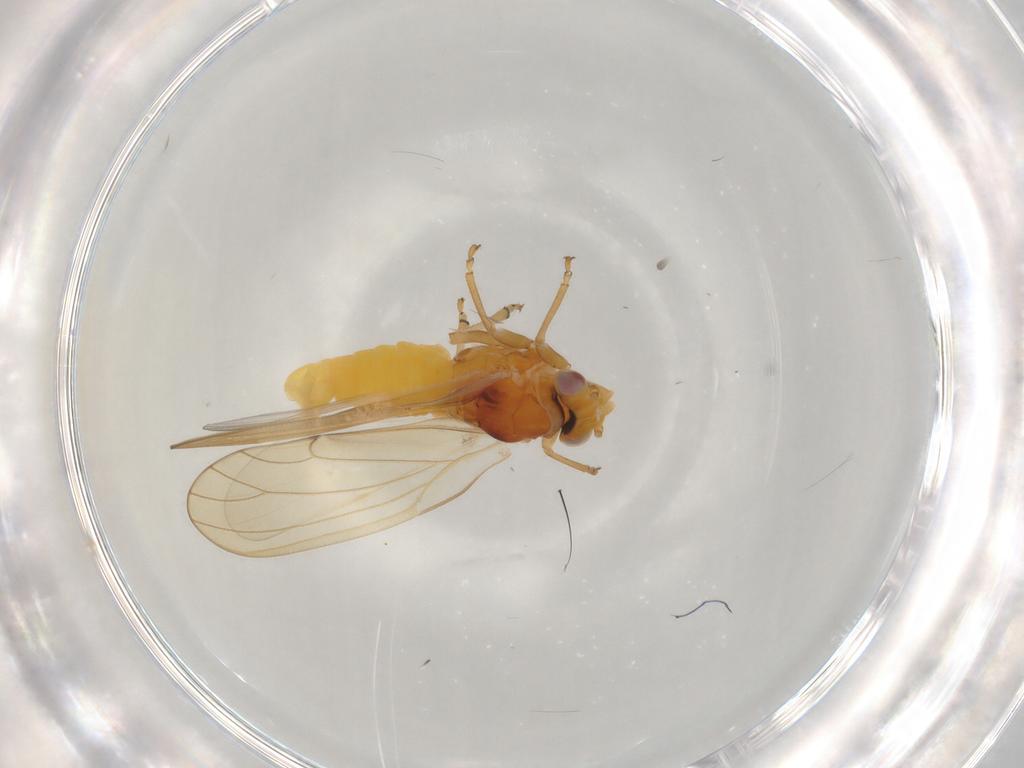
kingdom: Animalia
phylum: Arthropoda
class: Insecta
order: Hemiptera
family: Psylloidea_incertae_sedis
